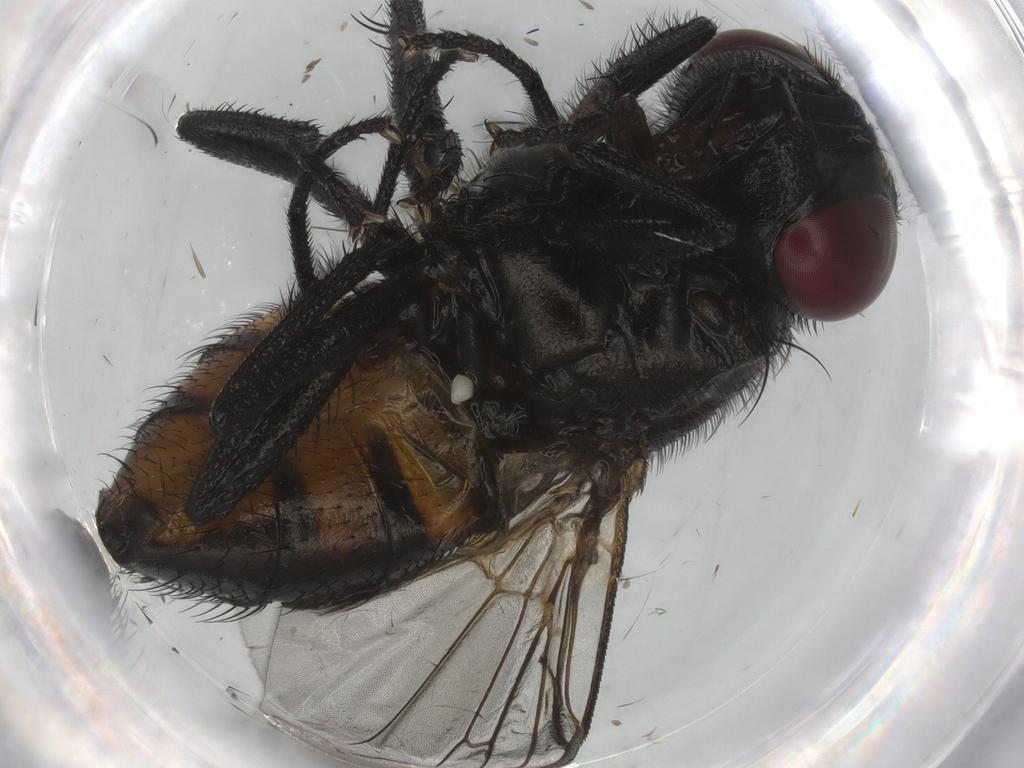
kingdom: Animalia
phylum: Arthropoda
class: Insecta
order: Diptera
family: Muscidae
